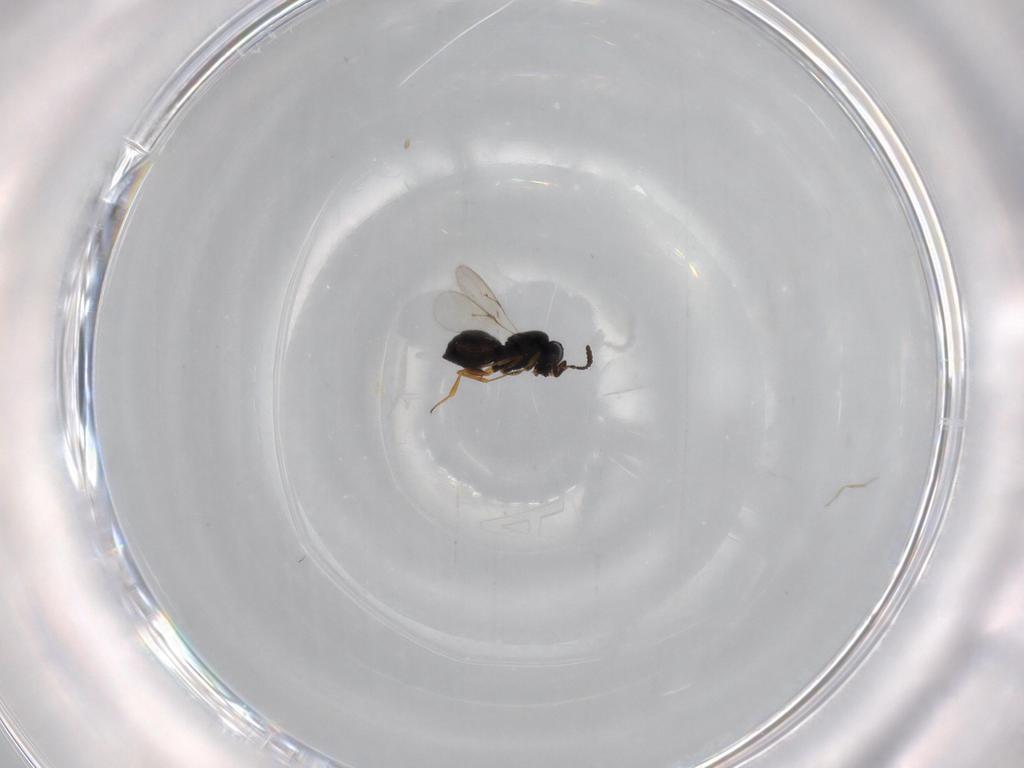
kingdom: Animalia
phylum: Arthropoda
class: Insecta
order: Hymenoptera
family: Scelionidae
